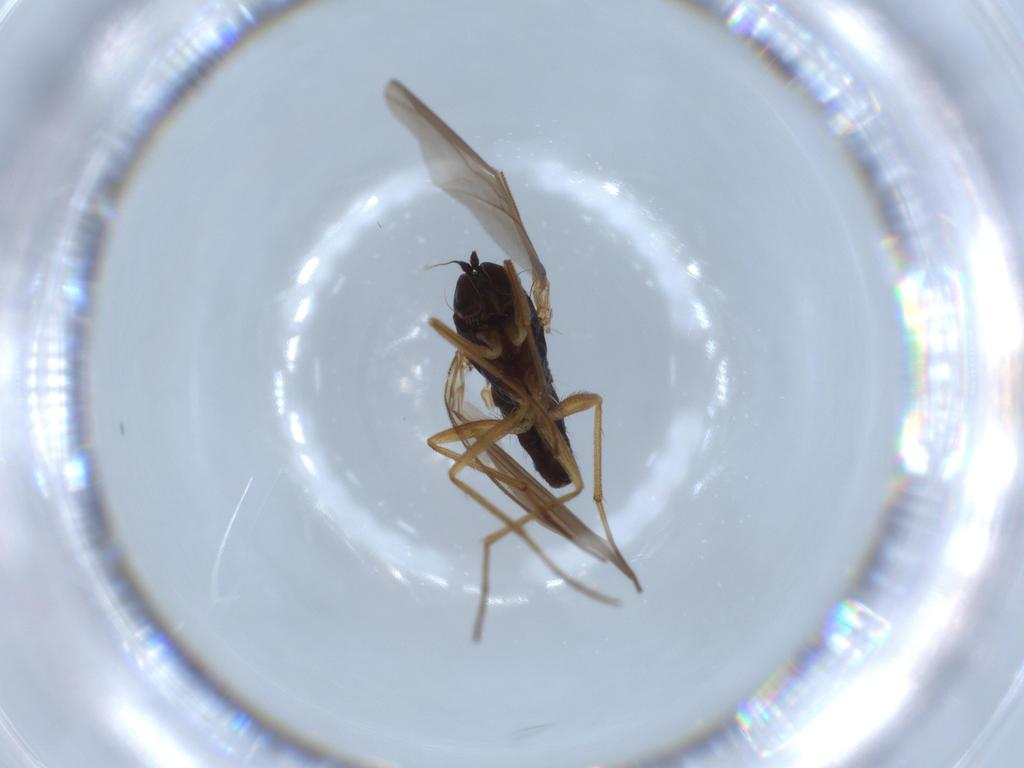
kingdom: Animalia
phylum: Arthropoda
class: Insecta
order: Diptera
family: Dolichopodidae
